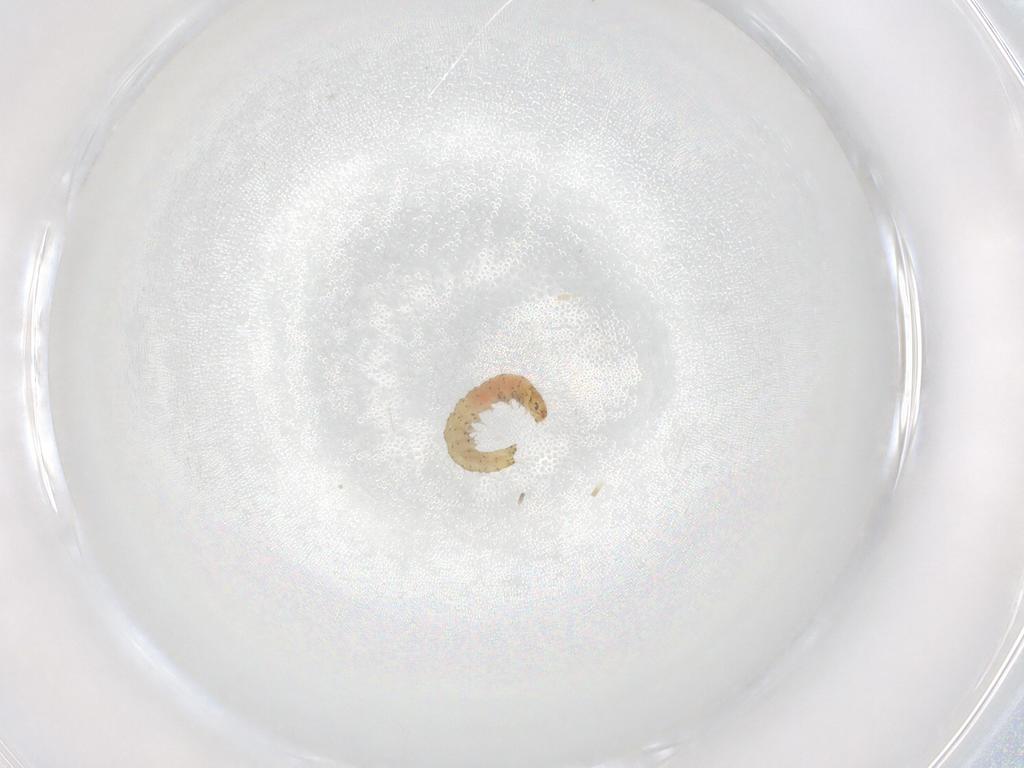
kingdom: Animalia
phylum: Arthropoda
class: Insecta
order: Lepidoptera
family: Gelechiidae
